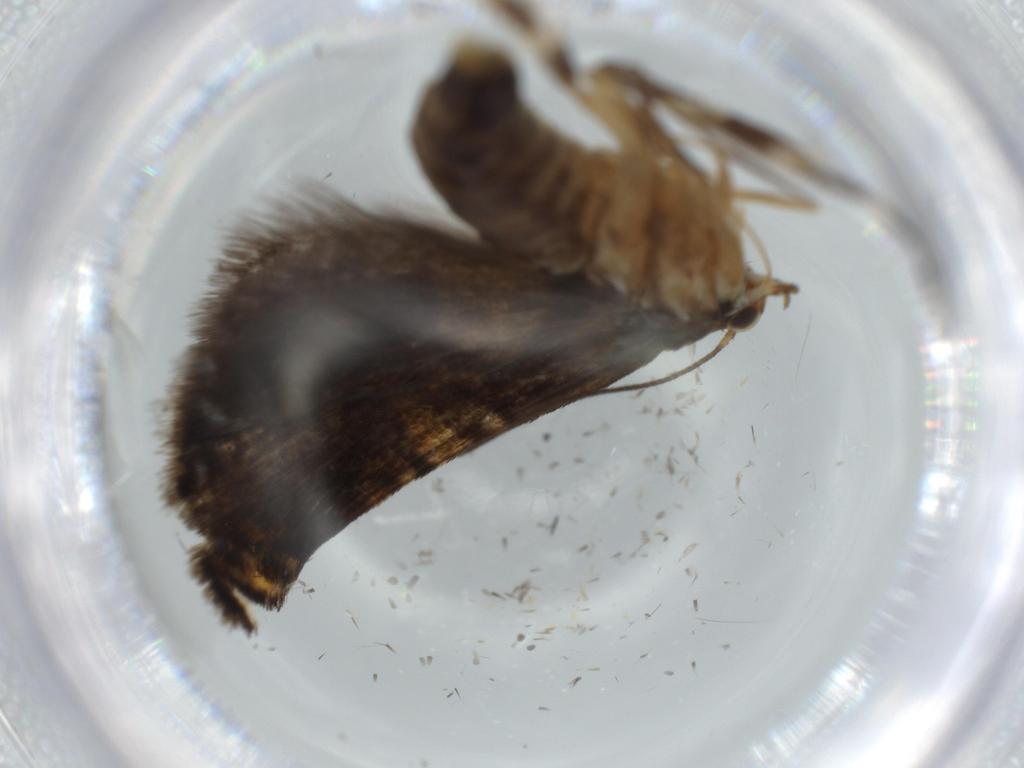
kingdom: Animalia
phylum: Arthropoda
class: Insecta
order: Lepidoptera
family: Glyphipterigidae
